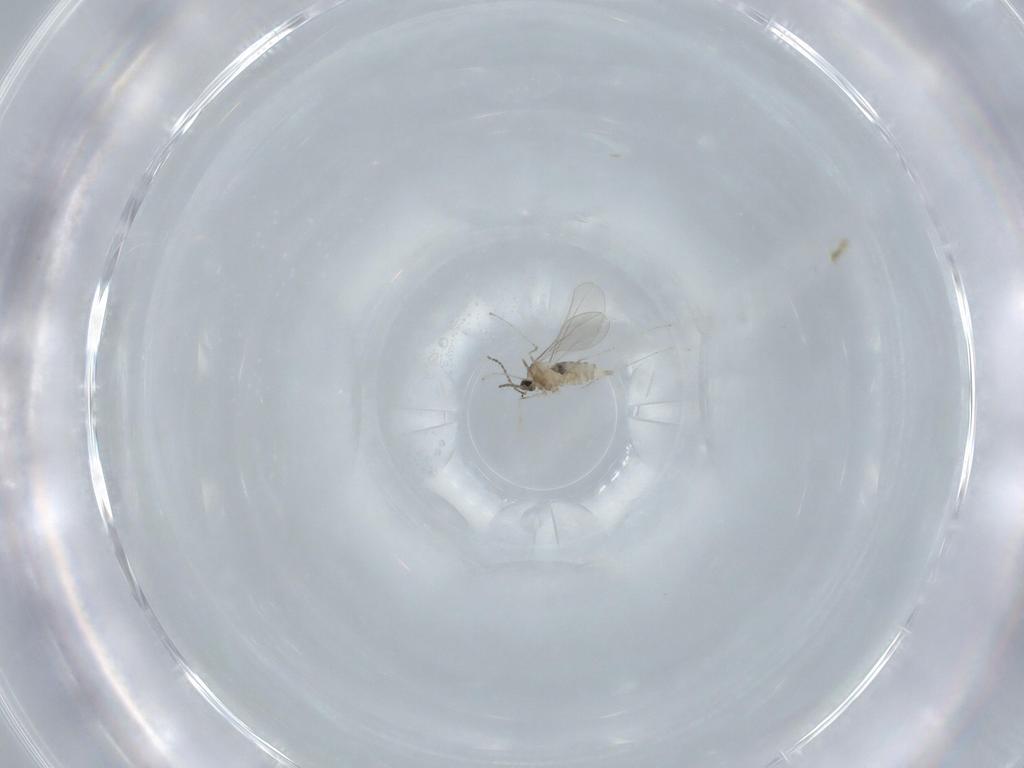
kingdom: Animalia
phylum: Arthropoda
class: Insecta
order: Diptera
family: Cecidomyiidae
